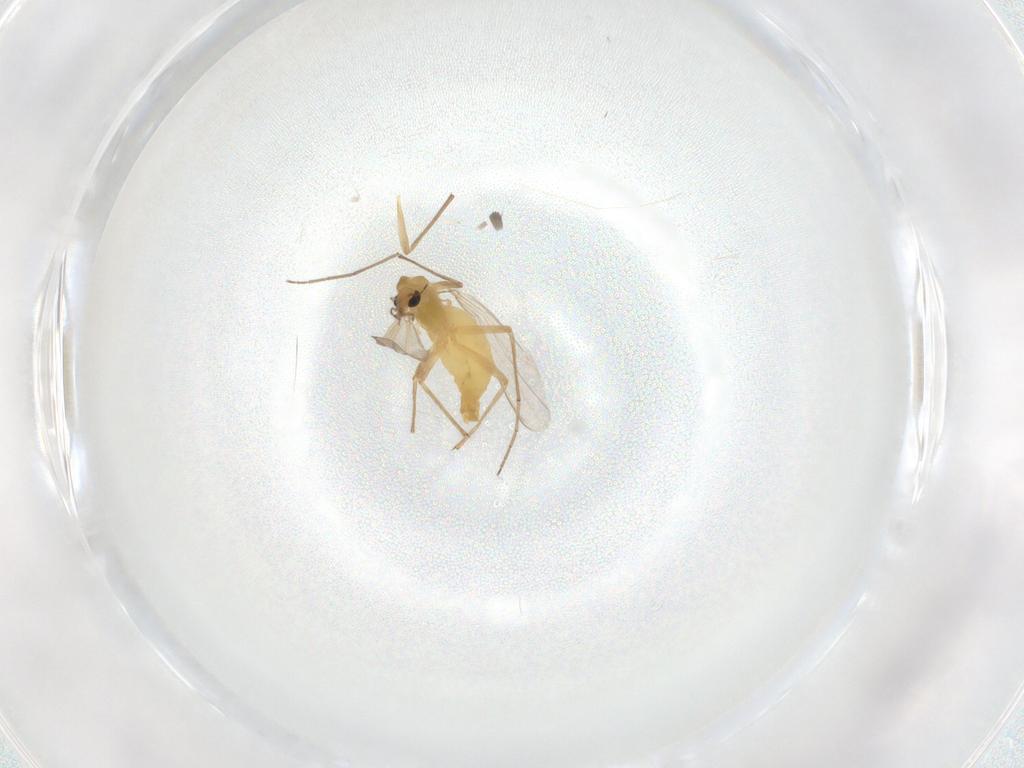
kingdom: Animalia
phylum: Arthropoda
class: Insecta
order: Diptera
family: Chironomidae
